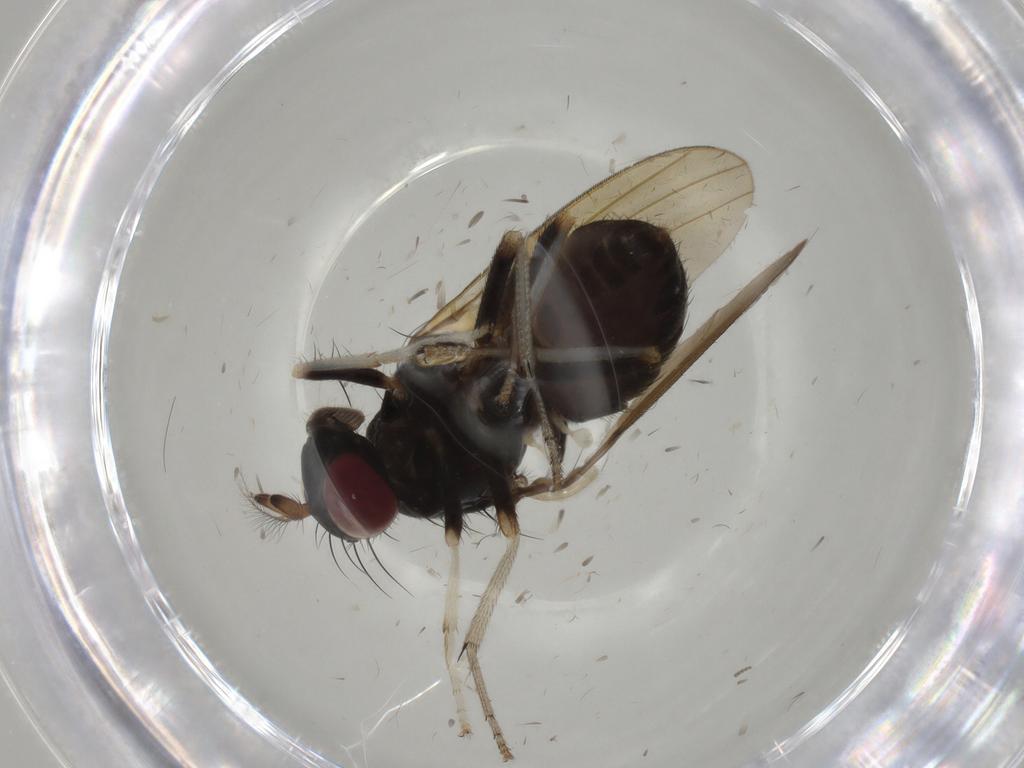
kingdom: Animalia
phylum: Arthropoda
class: Insecta
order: Diptera
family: Lauxaniidae
